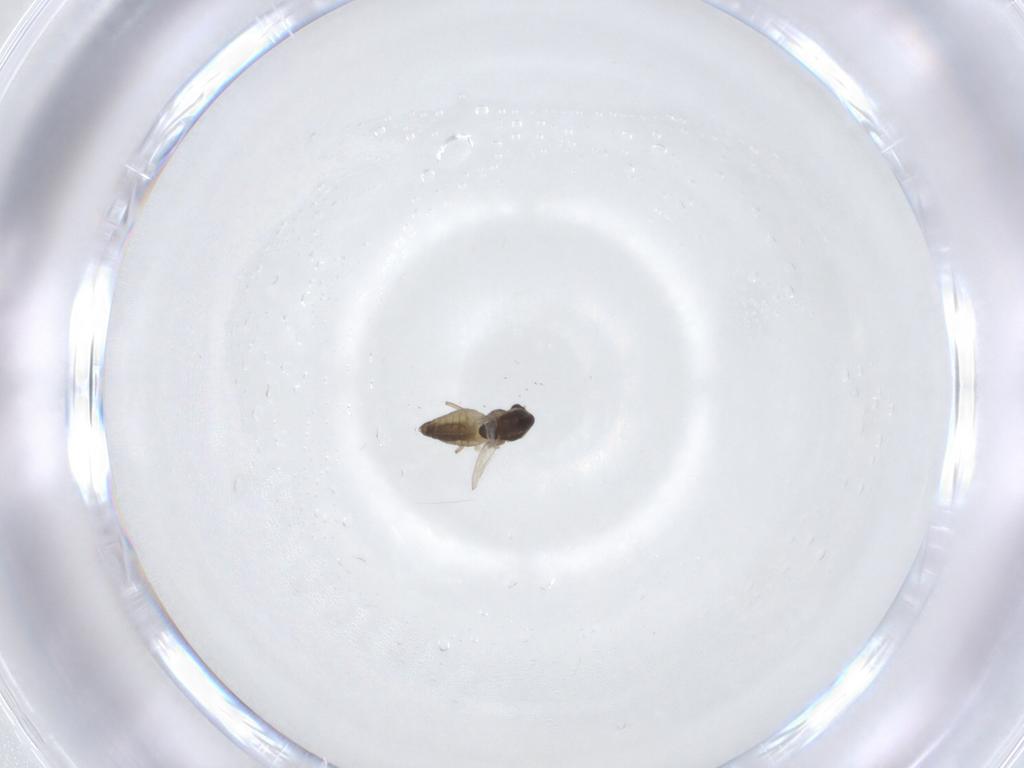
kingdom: Animalia
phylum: Arthropoda
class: Insecta
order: Diptera
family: Chironomidae
